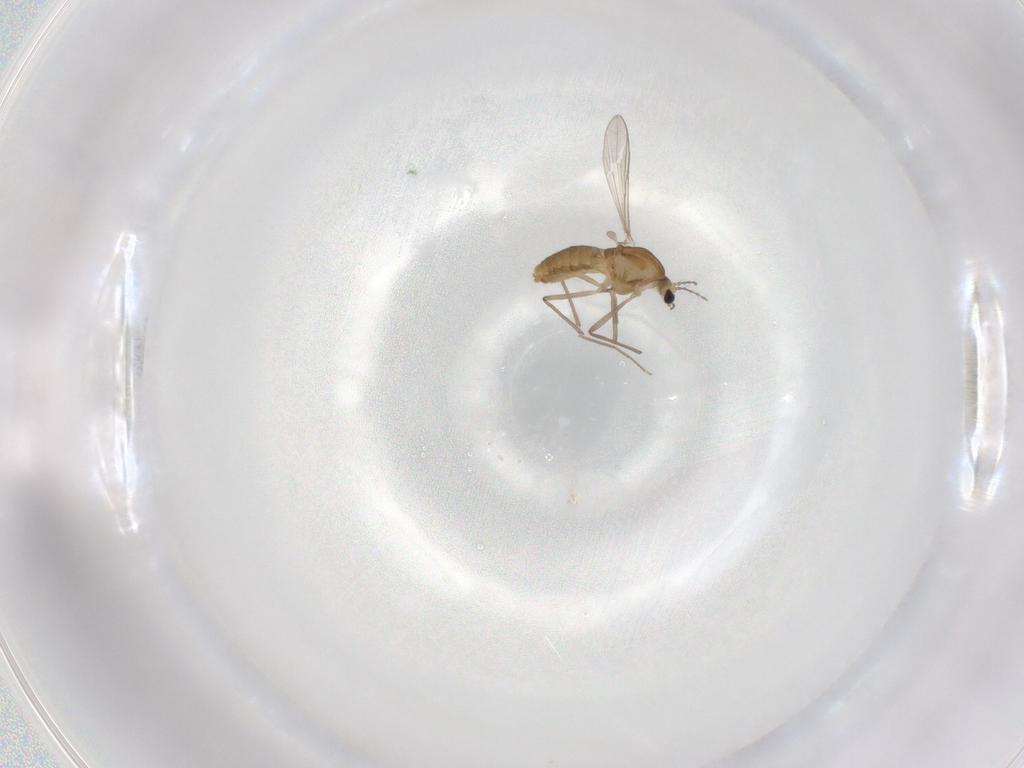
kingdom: Animalia
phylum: Arthropoda
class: Insecta
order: Diptera
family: Chironomidae
